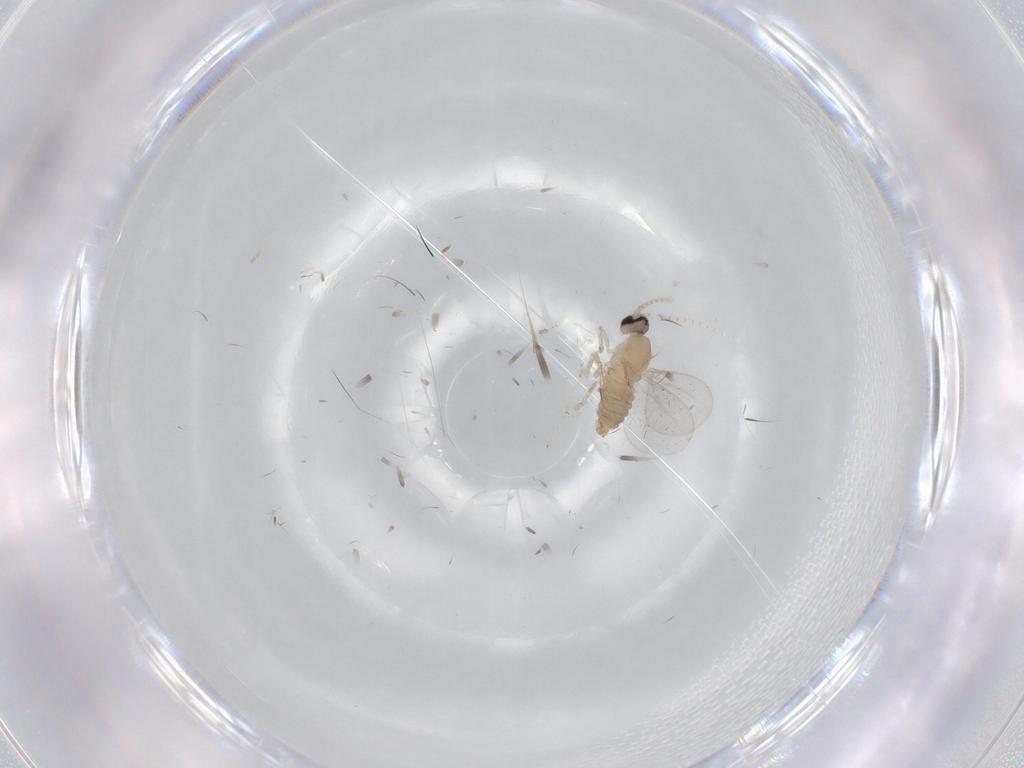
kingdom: Animalia
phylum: Arthropoda
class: Insecta
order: Diptera
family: Cecidomyiidae
